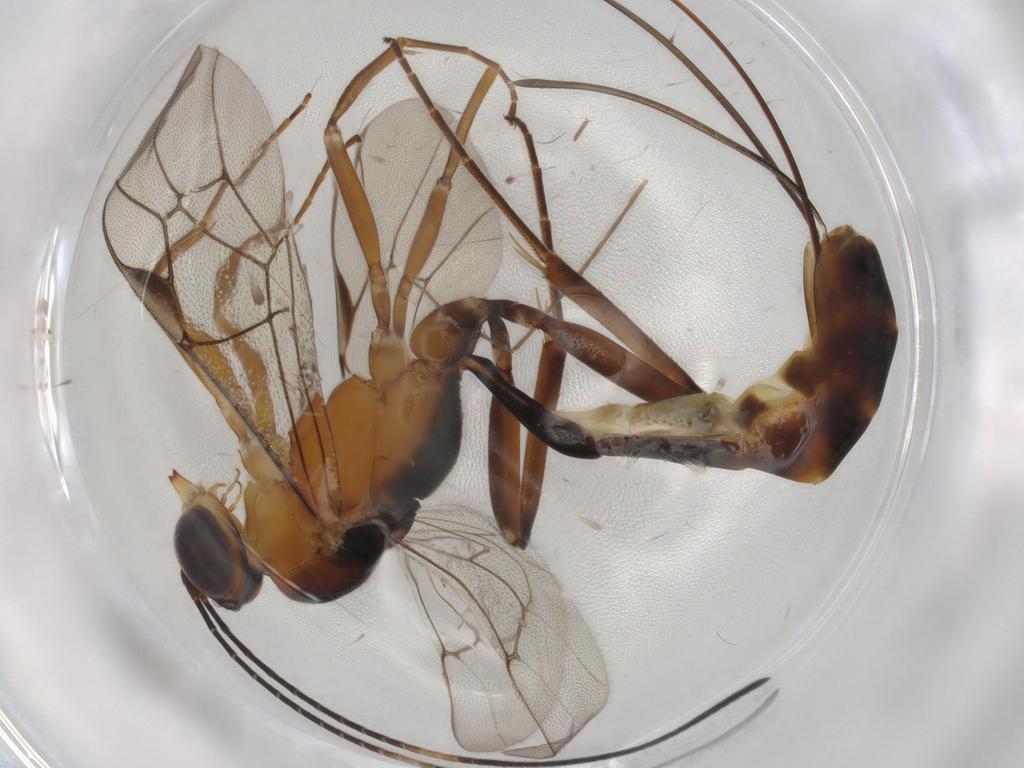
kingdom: Animalia
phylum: Arthropoda
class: Insecta
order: Hymenoptera
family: Platygastridae
